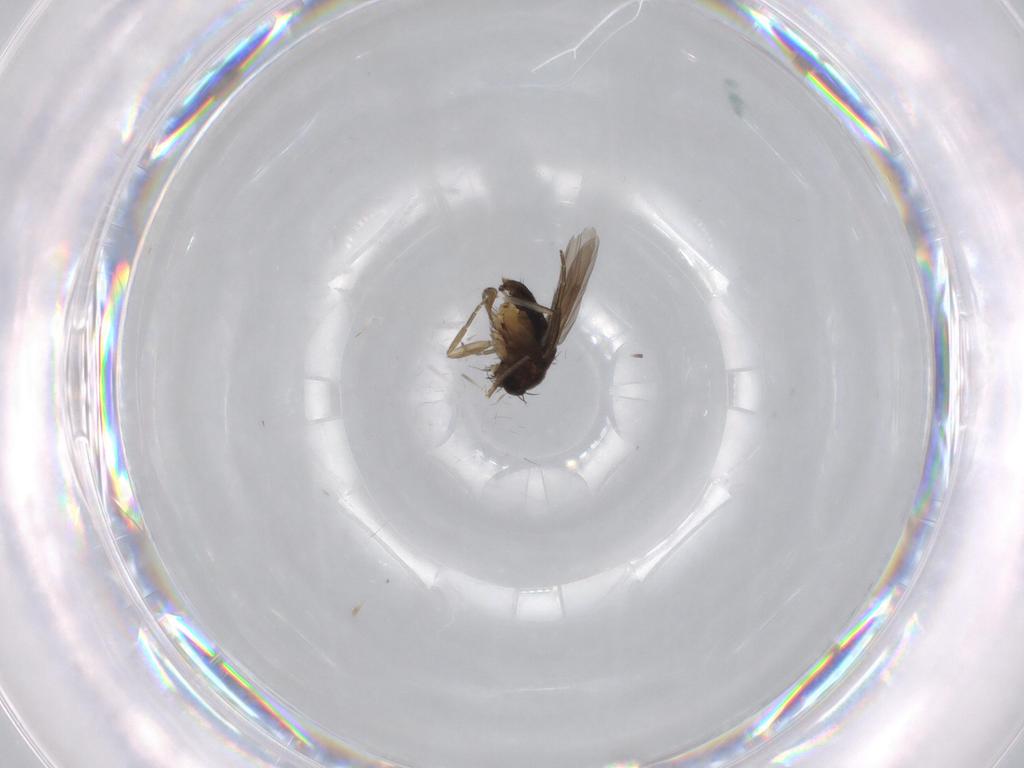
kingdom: Animalia
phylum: Arthropoda
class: Insecta
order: Diptera
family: Phoridae
